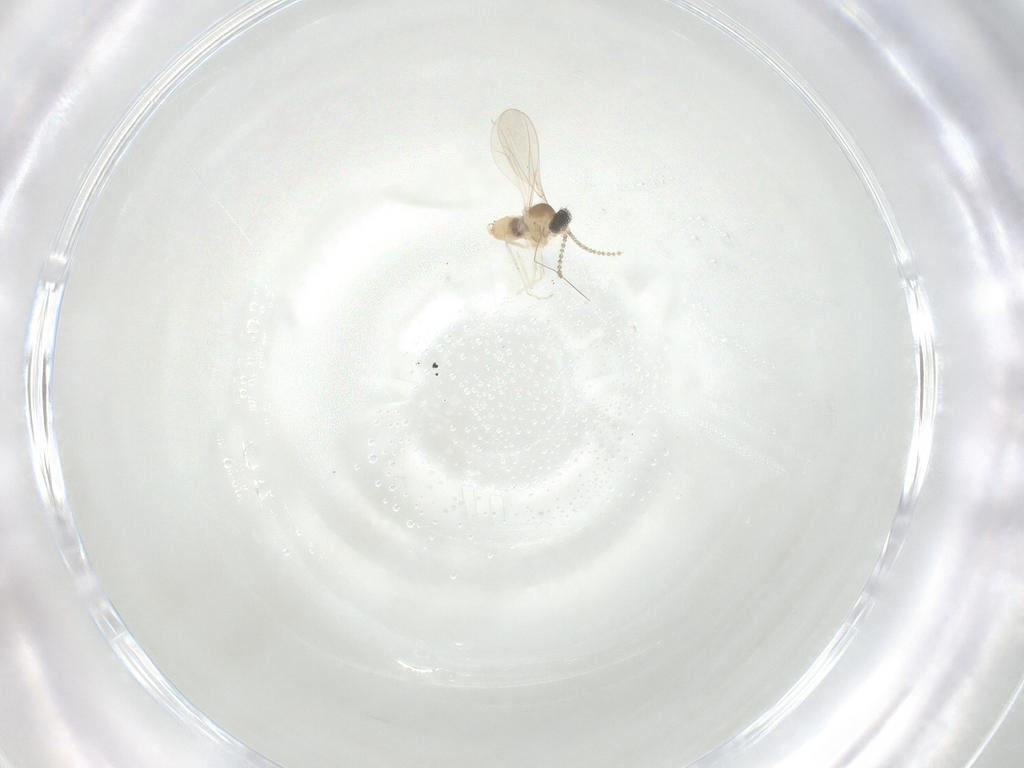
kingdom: Animalia
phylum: Arthropoda
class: Insecta
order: Diptera
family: Cecidomyiidae
